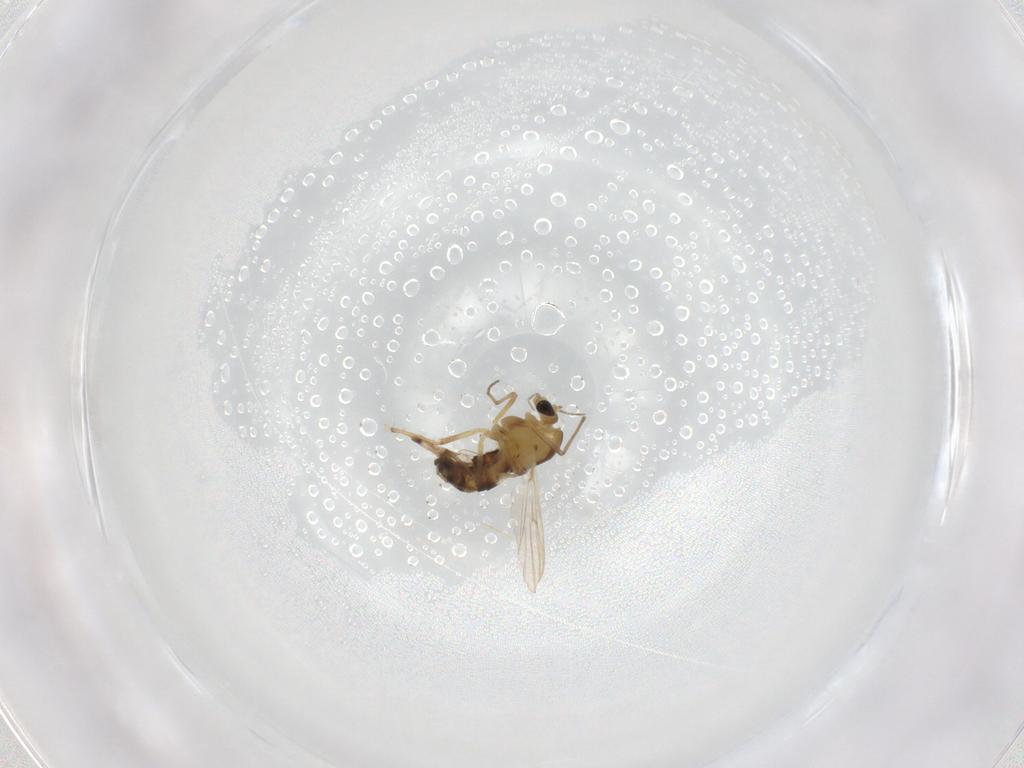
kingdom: Animalia
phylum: Arthropoda
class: Insecta
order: Diptera
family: Chironomidae
